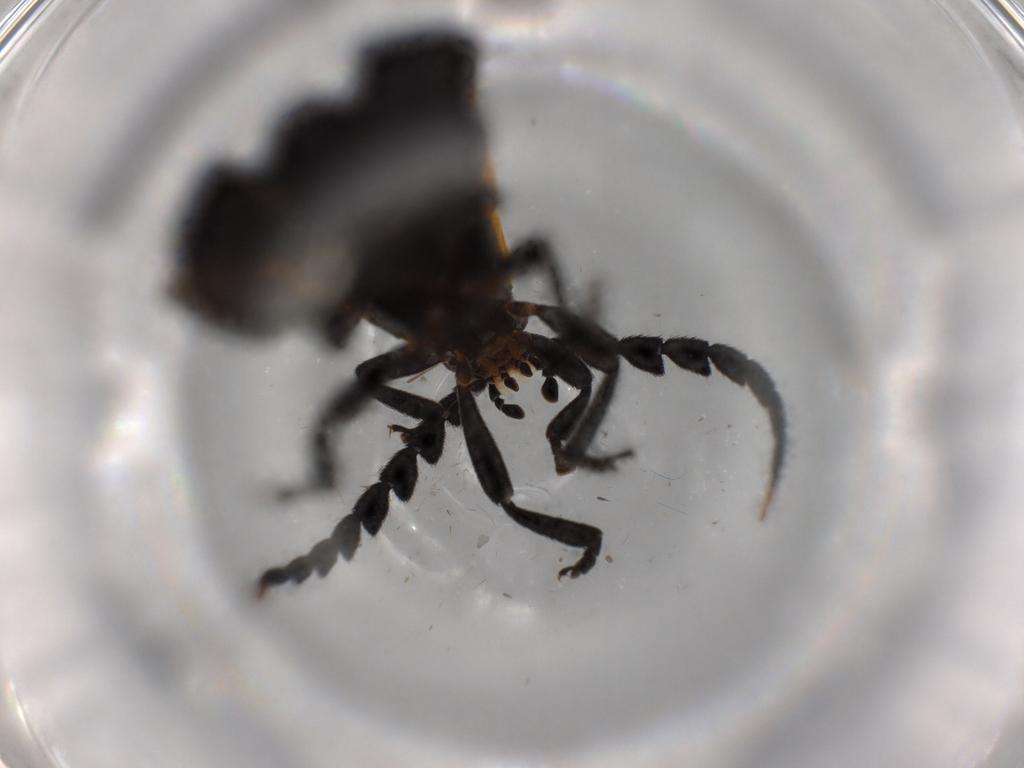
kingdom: Animalia
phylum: Arthropoda
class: Insecta
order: Coleoptera
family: Lycidae
